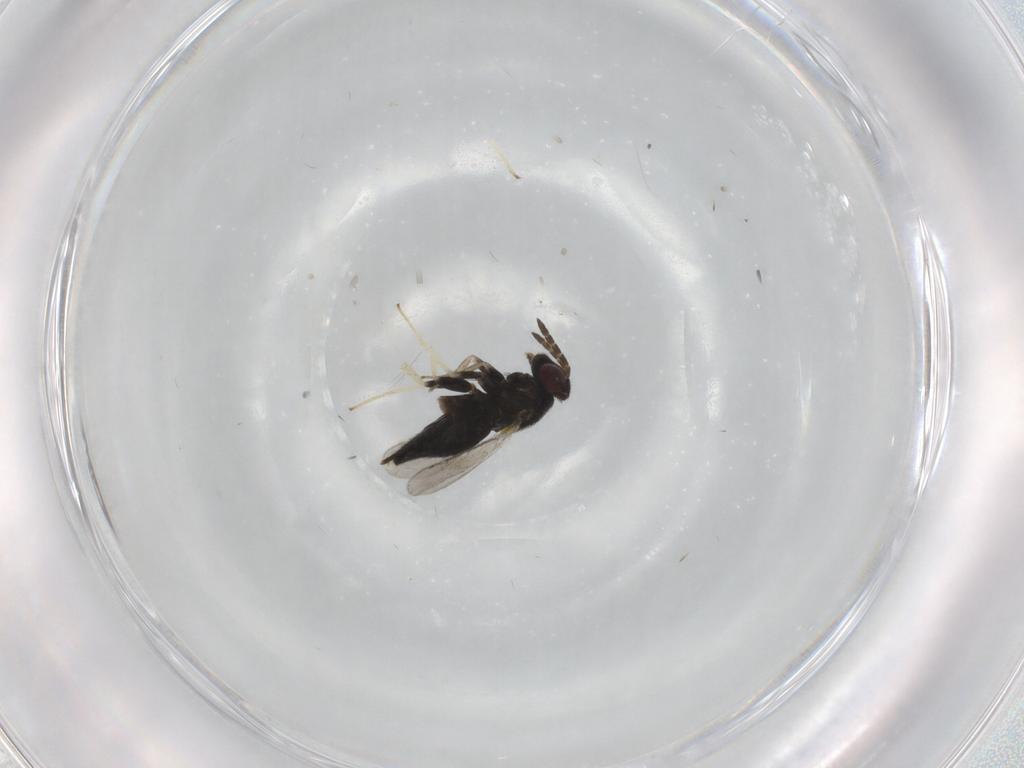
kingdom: Animalia
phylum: Arthropoda
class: Insecta
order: Hymenoptera
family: Aphelinidae
